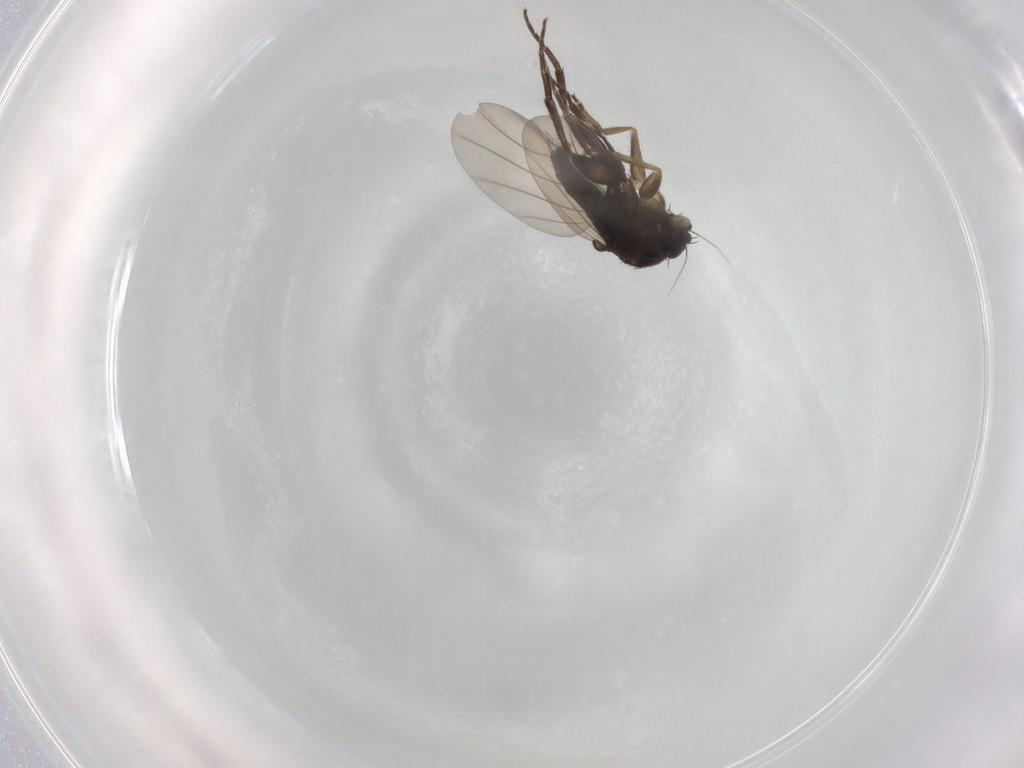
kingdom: Animalia
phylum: Arthropoda
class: Insecta
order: Diptera
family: Phoridae
